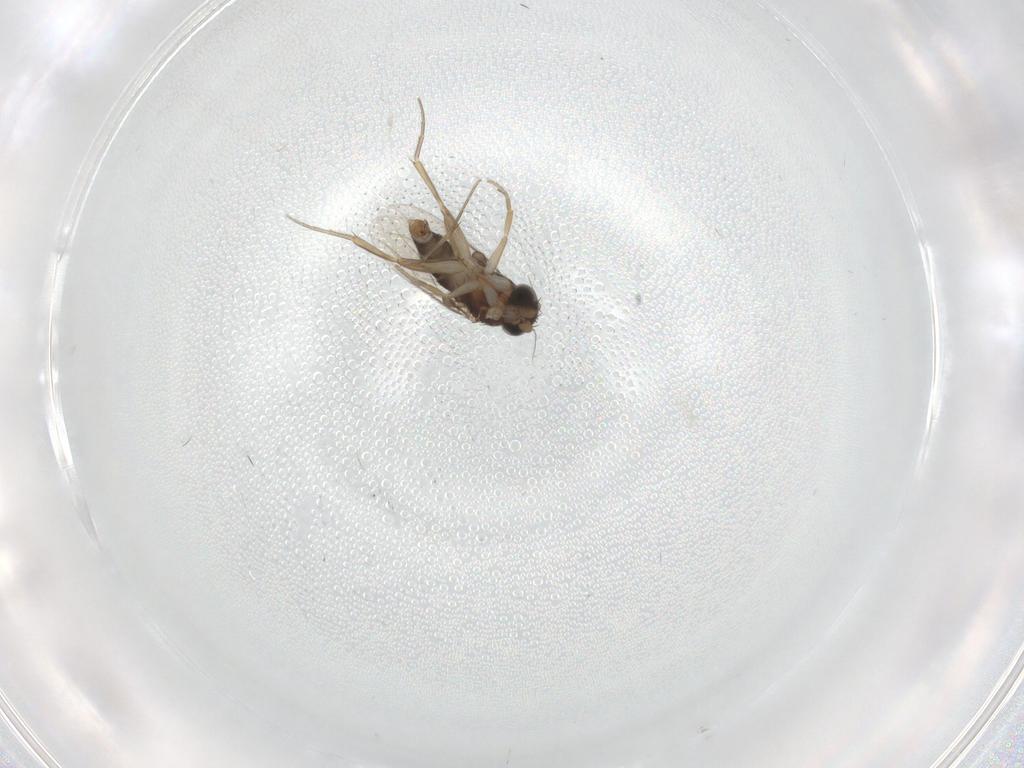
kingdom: Animalia
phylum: Arthropoda
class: Insecta
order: Diptera
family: Phoridae
